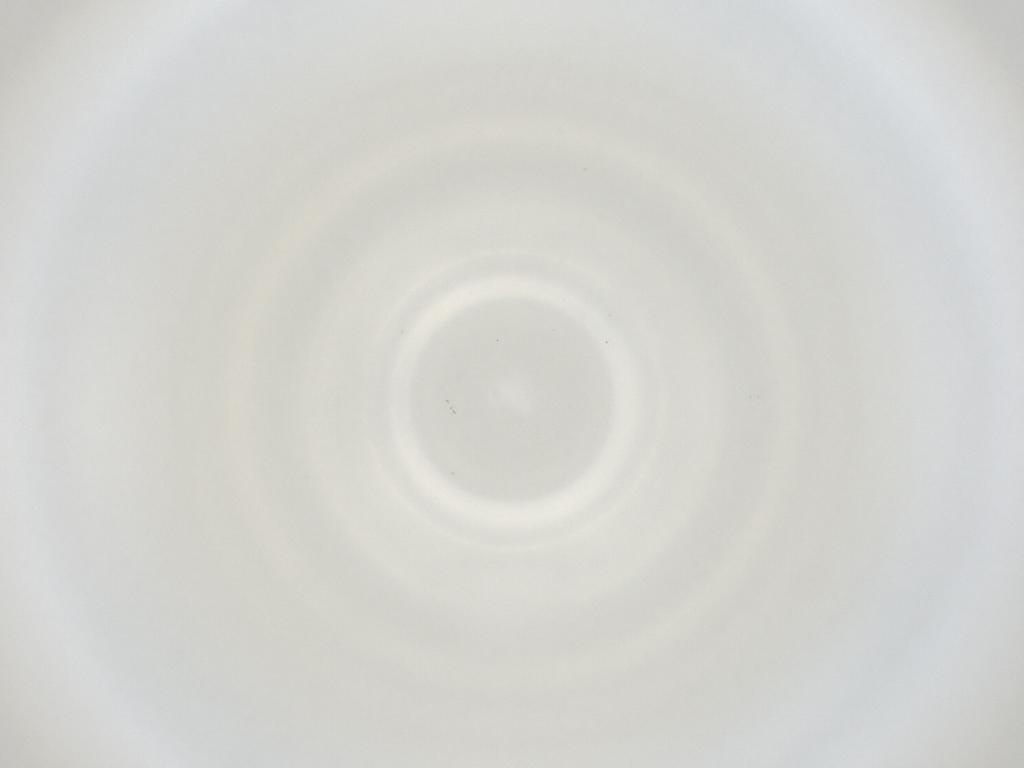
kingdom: Animalia
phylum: Arthropoda
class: Insecta
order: Diptera
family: Cecidomyiidae
